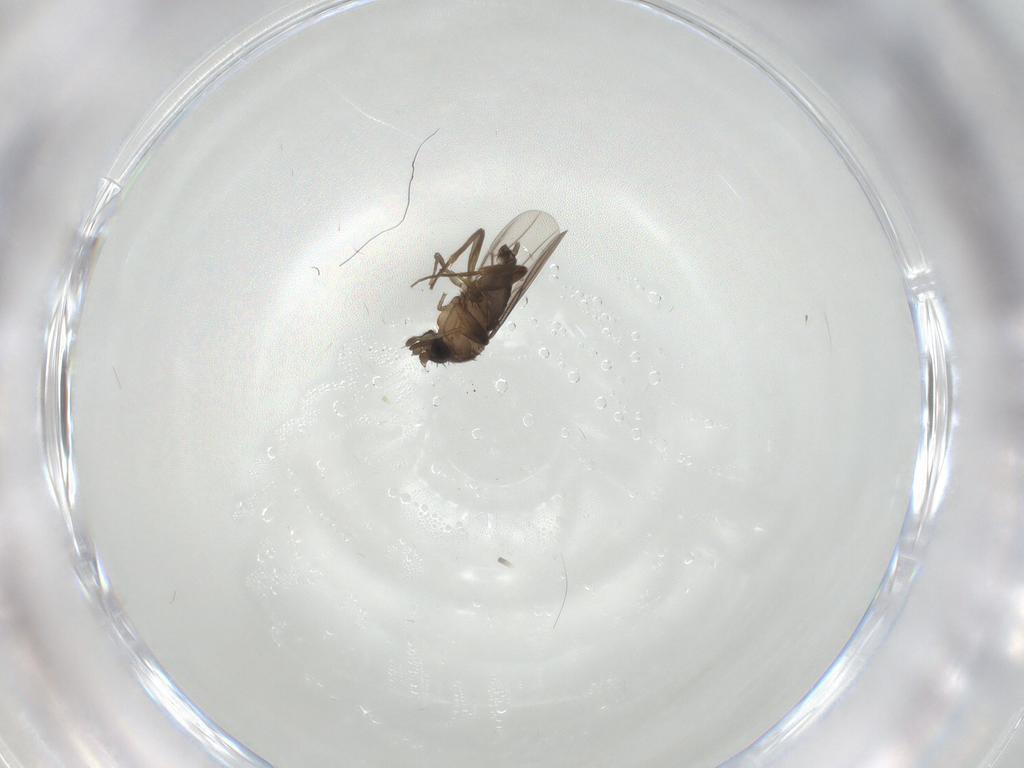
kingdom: Animalia
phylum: Arthropoda
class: Insecta
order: Diptera
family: Phoridae
